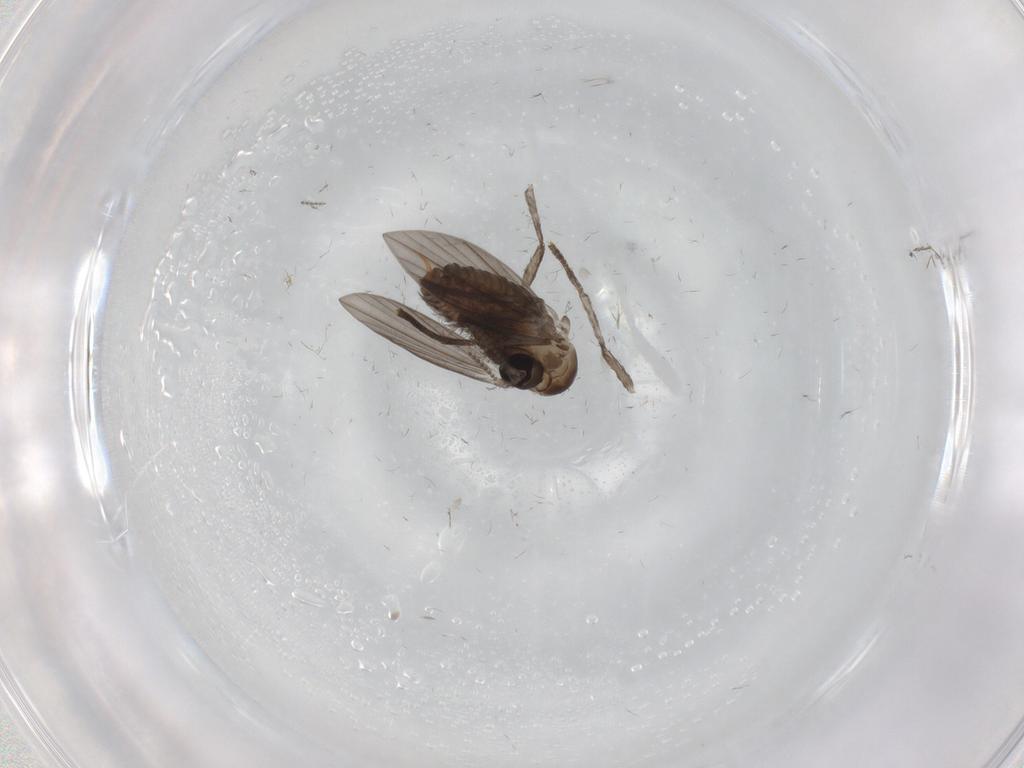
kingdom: Animalia
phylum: Arthropoda
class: Insecta
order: Diptera
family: Psychodidae
